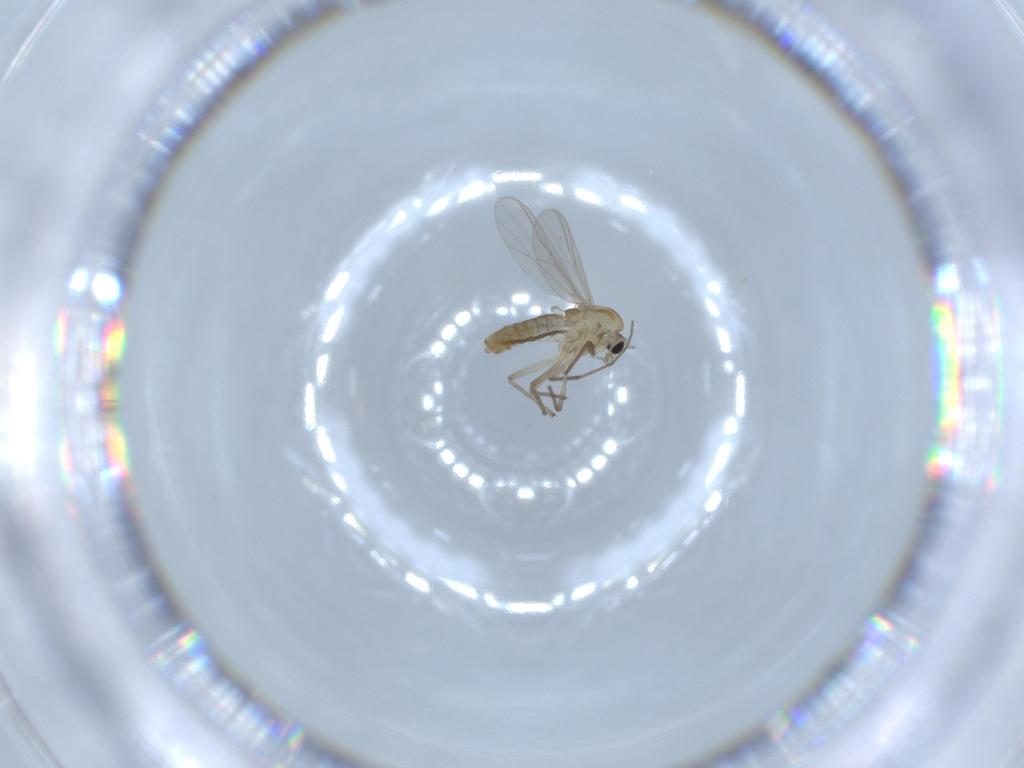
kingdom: Animalia
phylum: Arthropoda
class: Insecta
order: Diptera
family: Chironomidae
